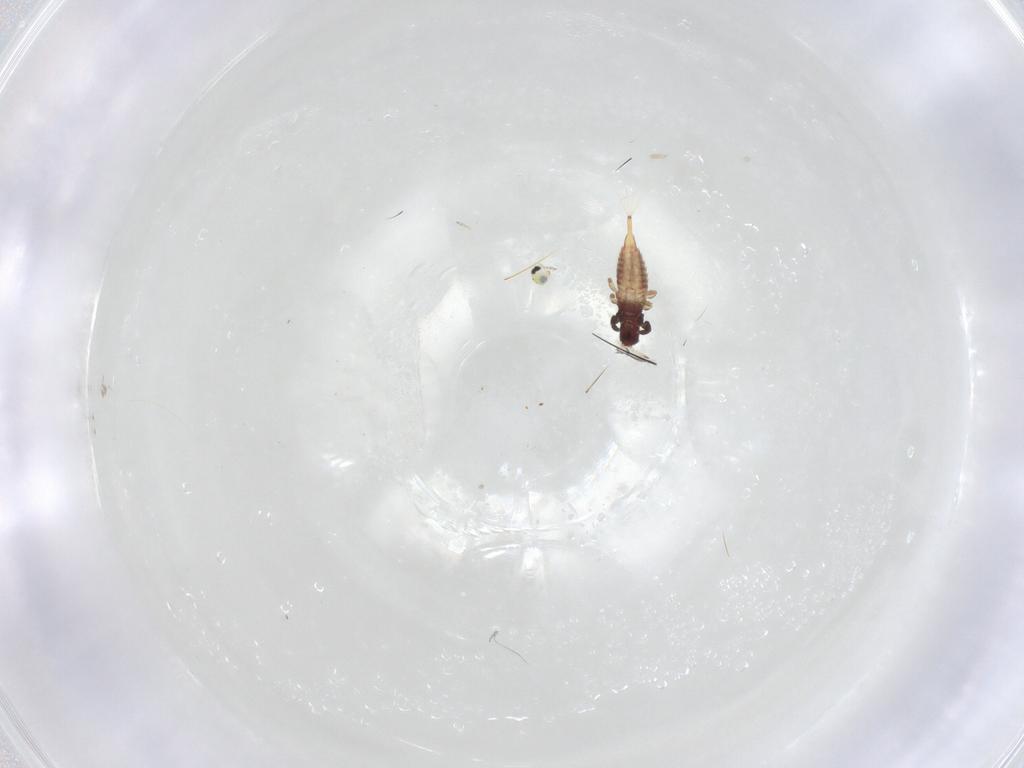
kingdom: Animalia
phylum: Arthropoda
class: Insecta
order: Thysanoptera
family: Phlaeothripidae
